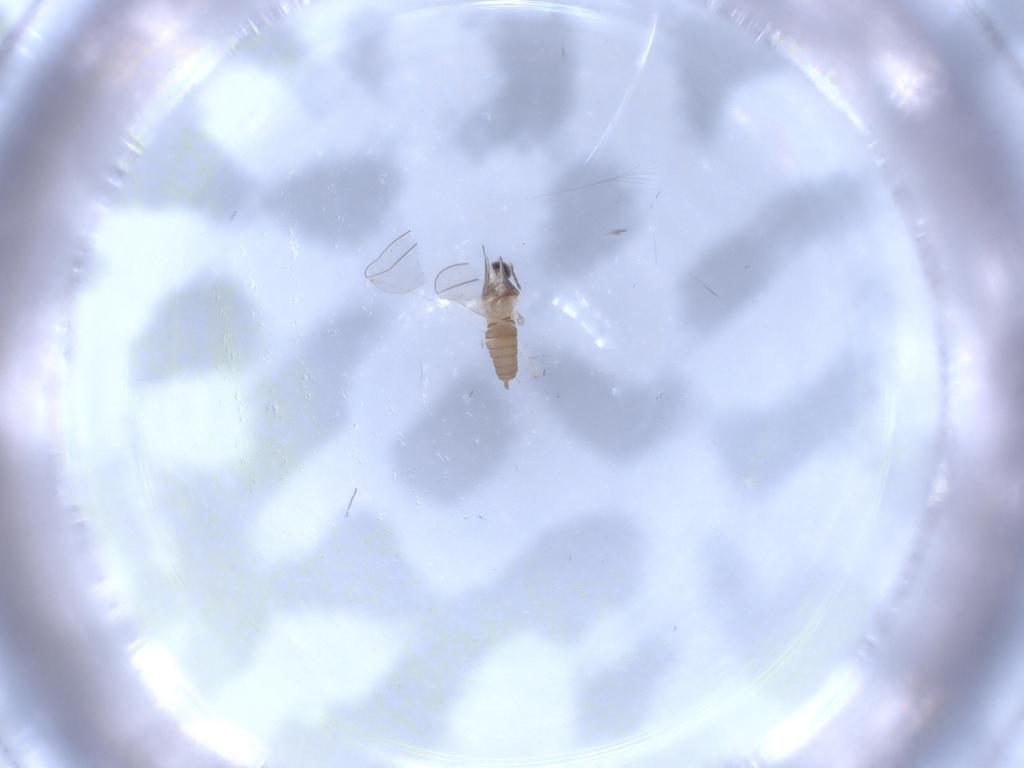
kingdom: Animalia
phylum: Arthropoda
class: Insecta
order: Diptera
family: Cecidomyiidae
